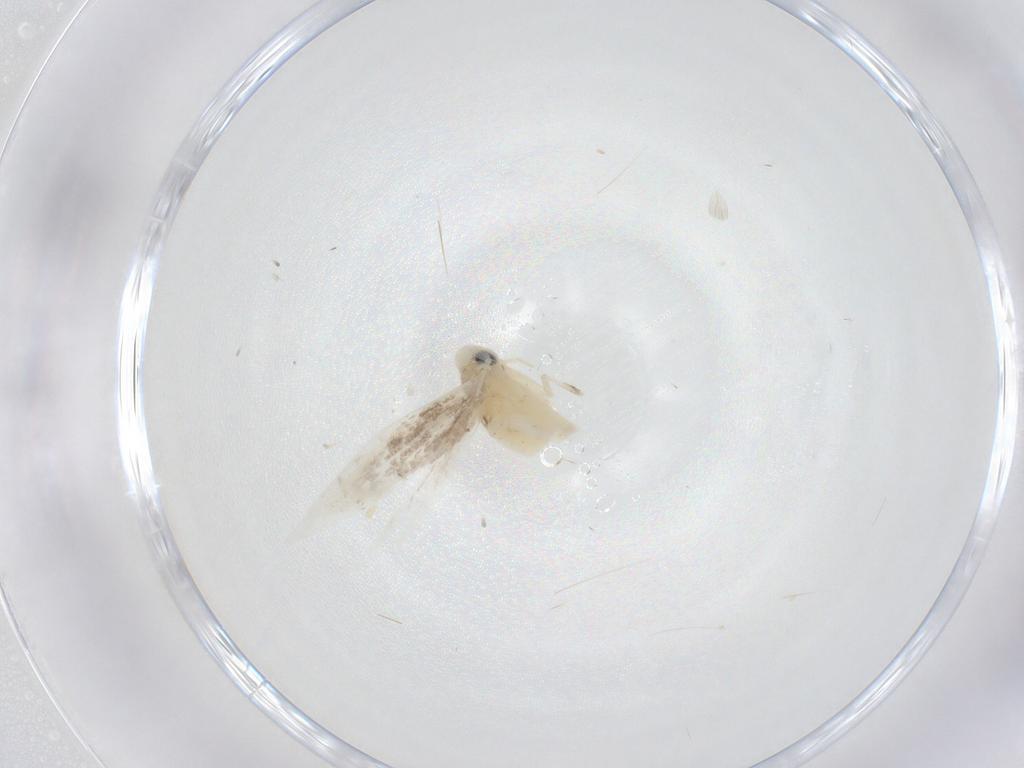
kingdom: Animalia
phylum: Arthropoda
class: Insecta
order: Lepidoptera
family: Gracillariidae
